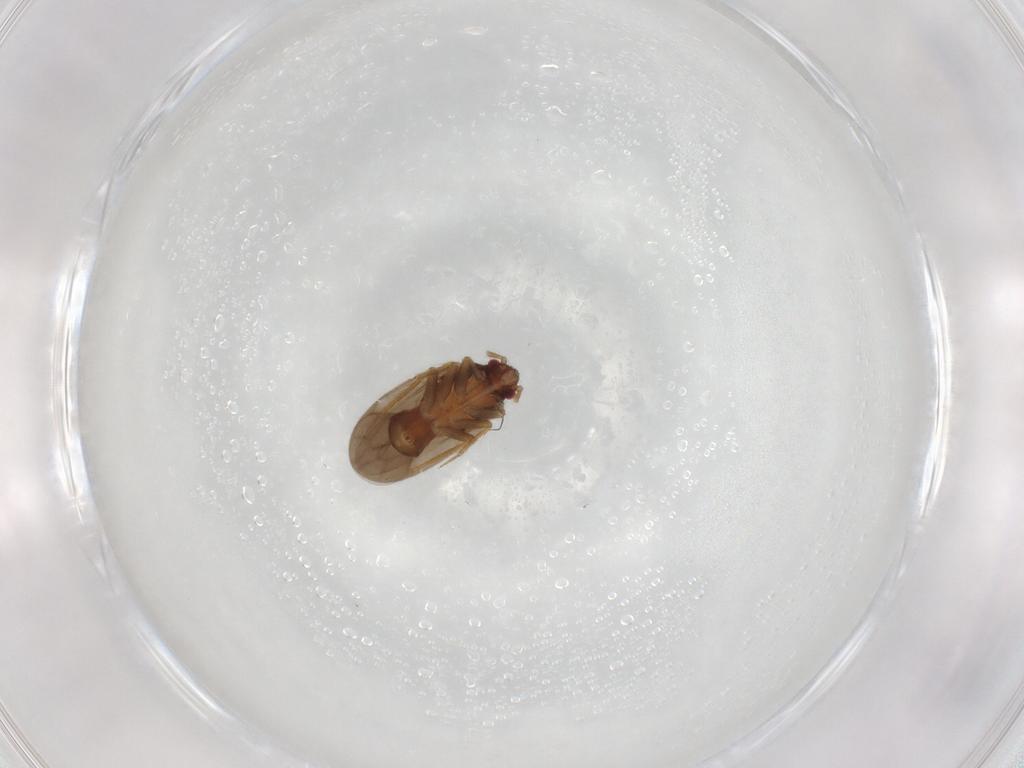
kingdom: Animalia
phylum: Arthropoda
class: Insecta
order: Hemiptera
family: Ceratocombidae
